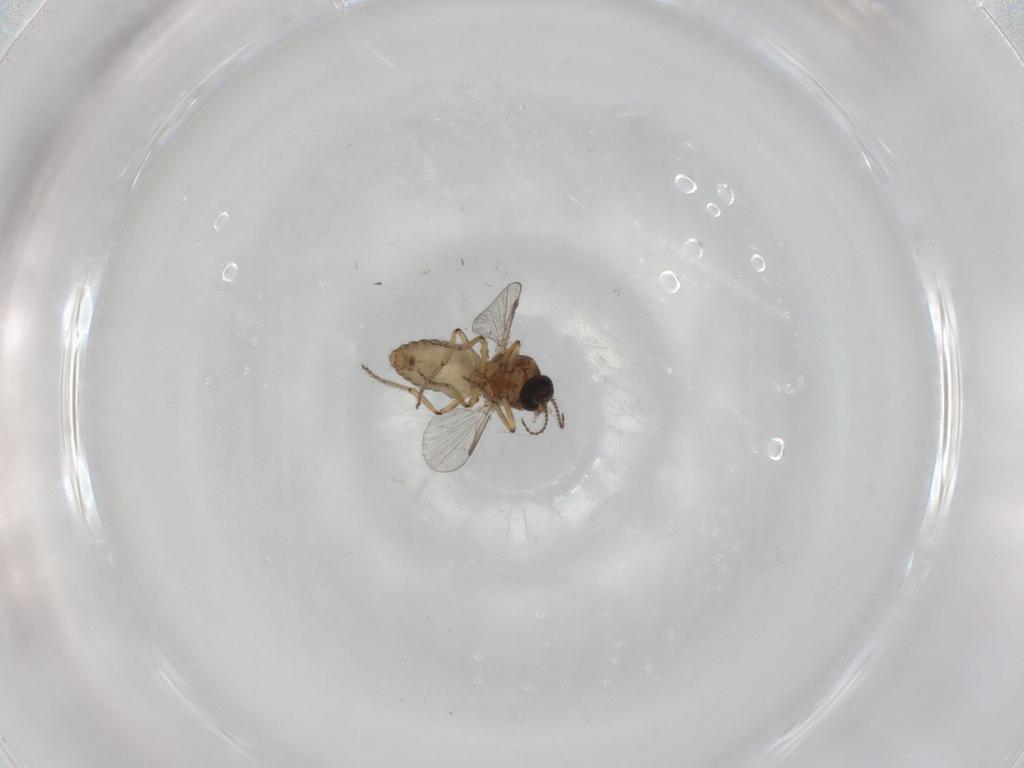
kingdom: Animalia
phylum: Arthropoda
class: Insecta
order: Diptera
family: Ceratopogonidae
